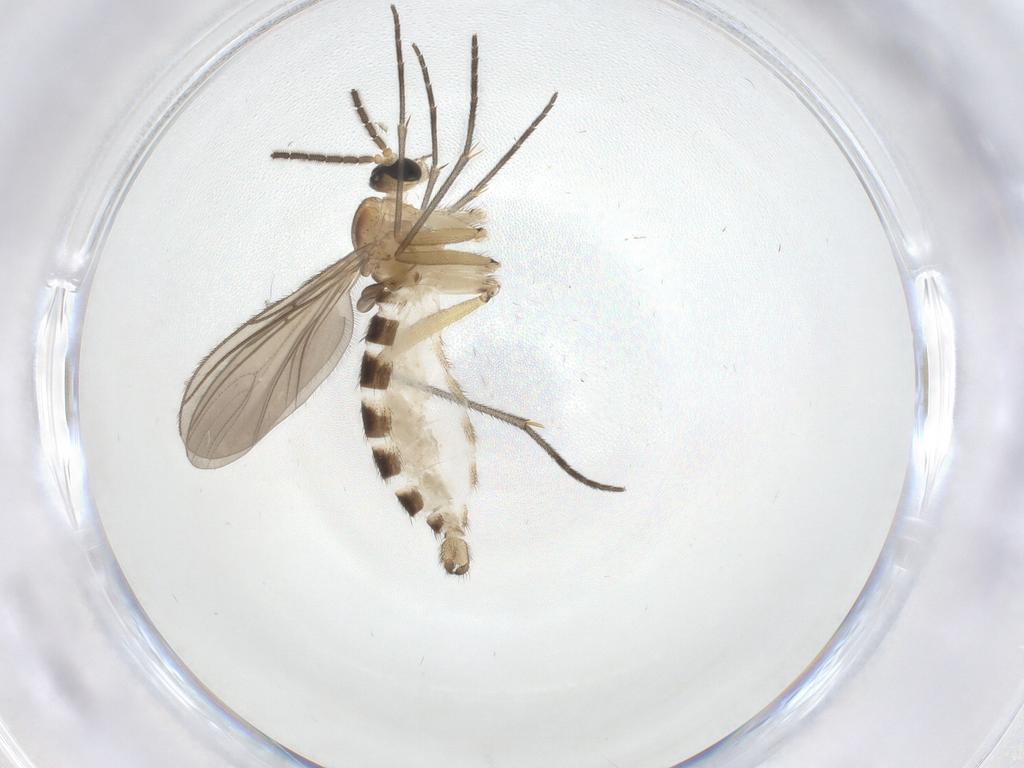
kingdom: Animalia
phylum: Arthropoda
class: Insecta
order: Diptera
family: Sciaridae
